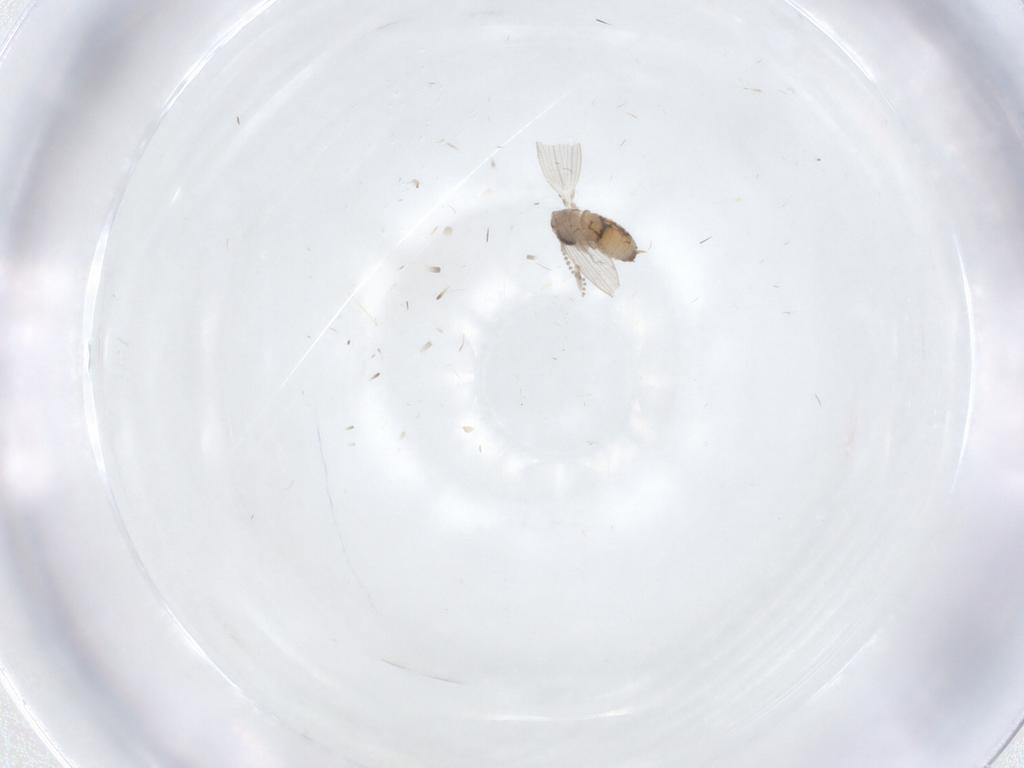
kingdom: Animalia
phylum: Arthropoda
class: Insecta
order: Diptera
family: Psychodidae
